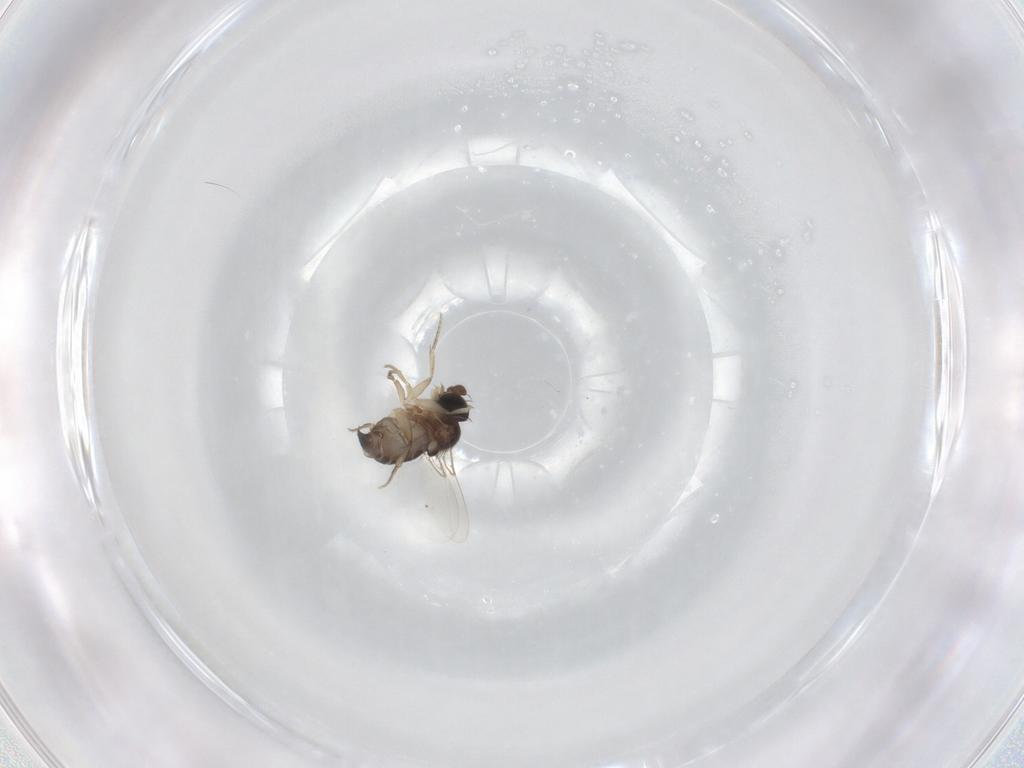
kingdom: Animalia
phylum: Arthropoda
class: Insecta
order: Diptera
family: Phoridae
